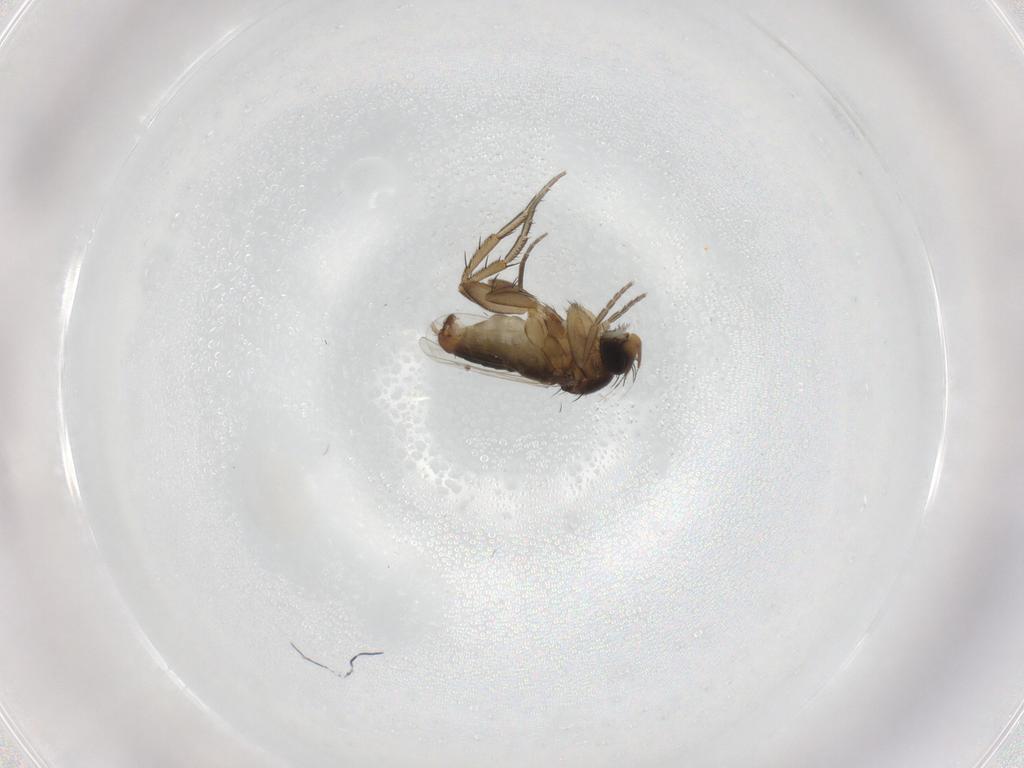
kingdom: Animalia
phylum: Arthropoda
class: Insecta
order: Diptera
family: Phoridae
